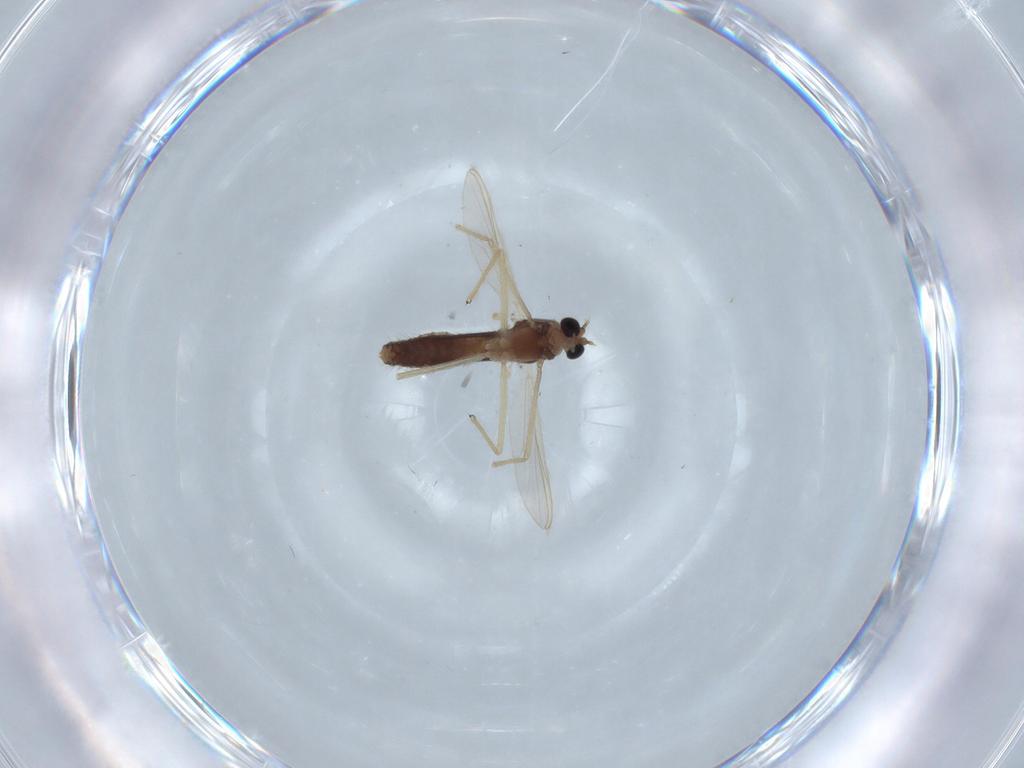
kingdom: Animalia
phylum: Arthropoda
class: Insecta
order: Diptera
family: Chironomidae
